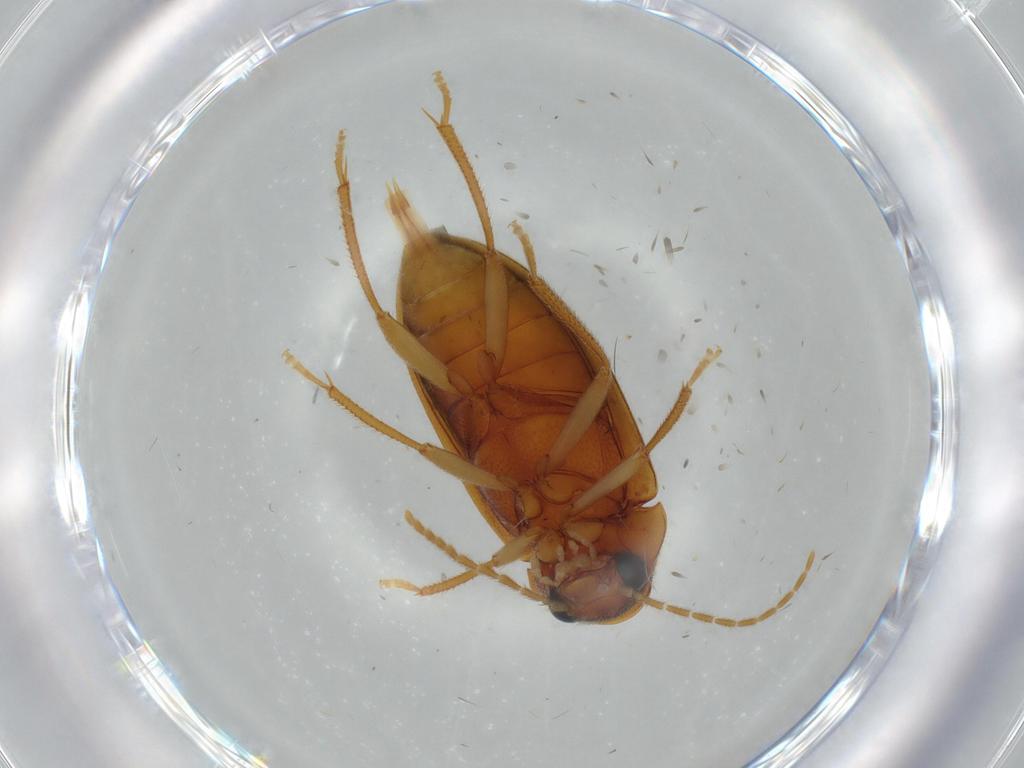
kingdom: Animalia
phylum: Arthropoda
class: Insecta
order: Coleoptera
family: Ptilodactylidae
